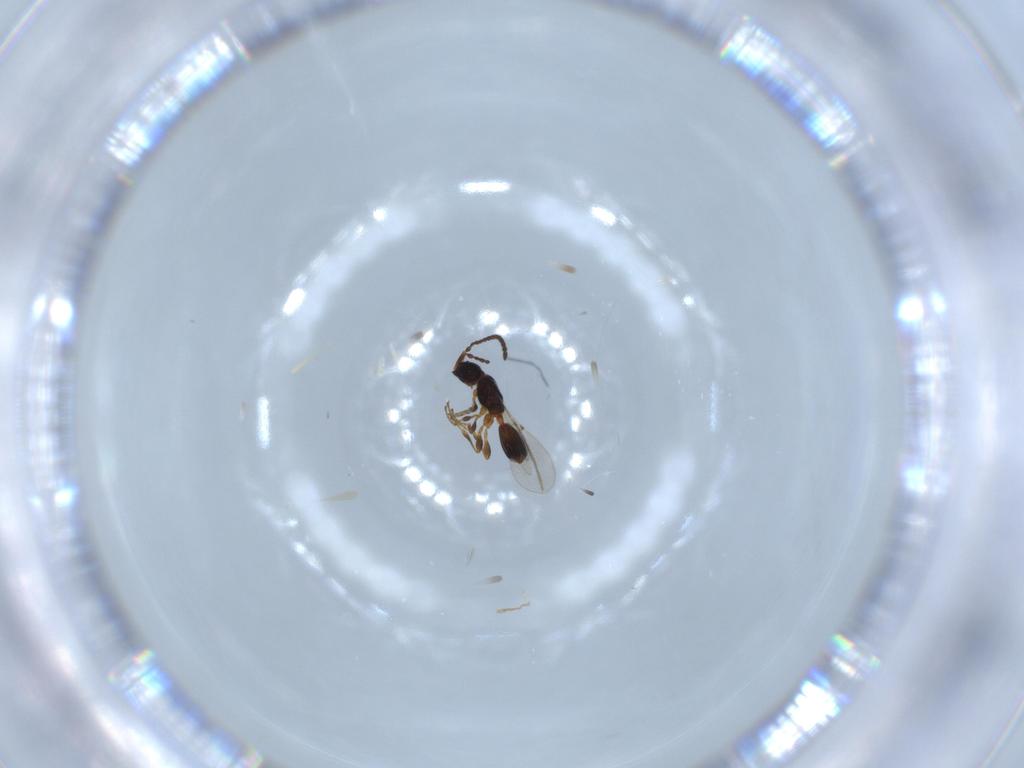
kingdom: Animalia
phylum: Arthropoda
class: Insecta
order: Hymenoptera
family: Diapriidae
